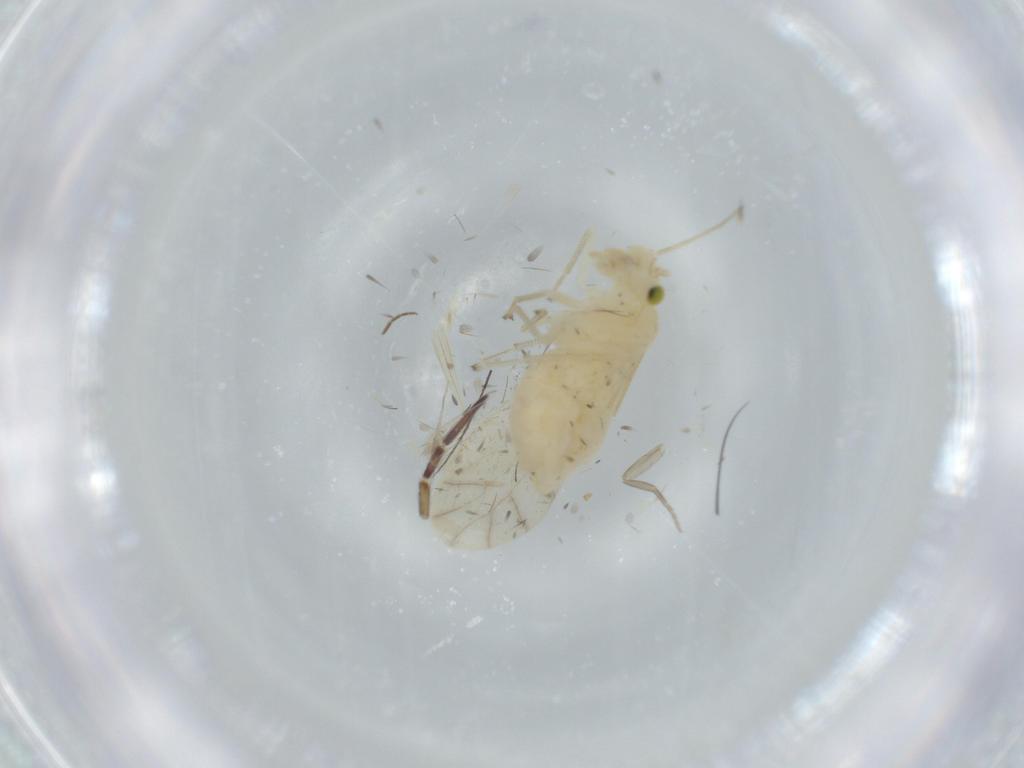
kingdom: Animalia
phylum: Arthropoda
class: Insecta
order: Psocodea
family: Caeciliusidae
